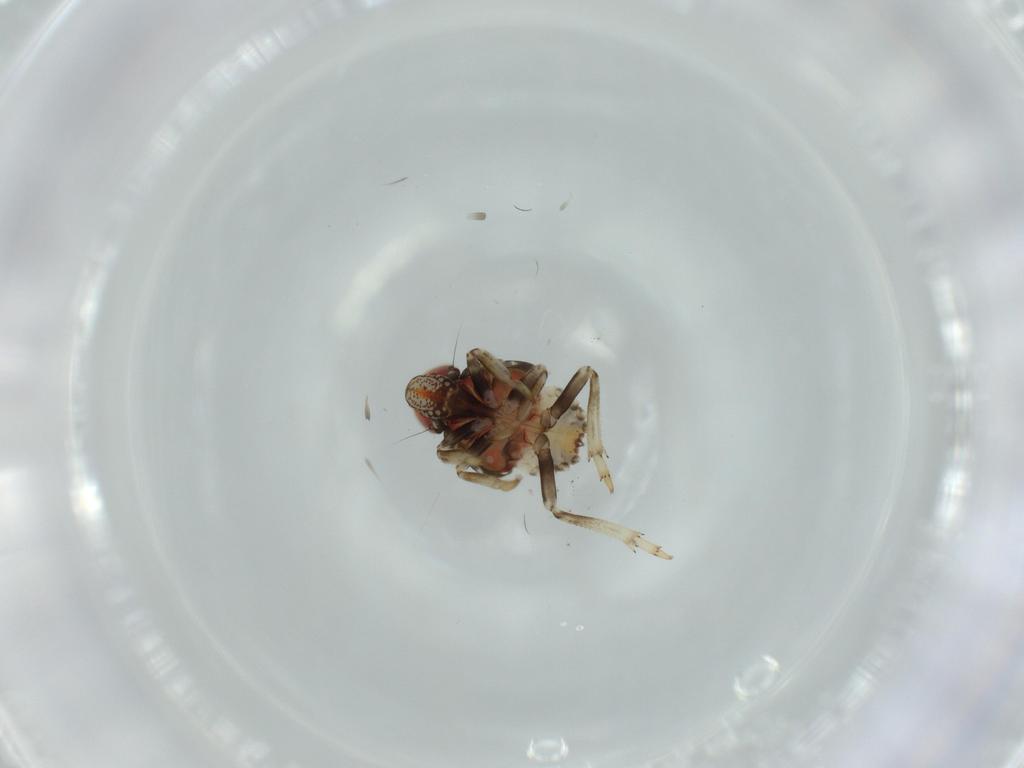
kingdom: Animalia
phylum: Arthropoda
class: Insecta
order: Hemiptera
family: Issidae
